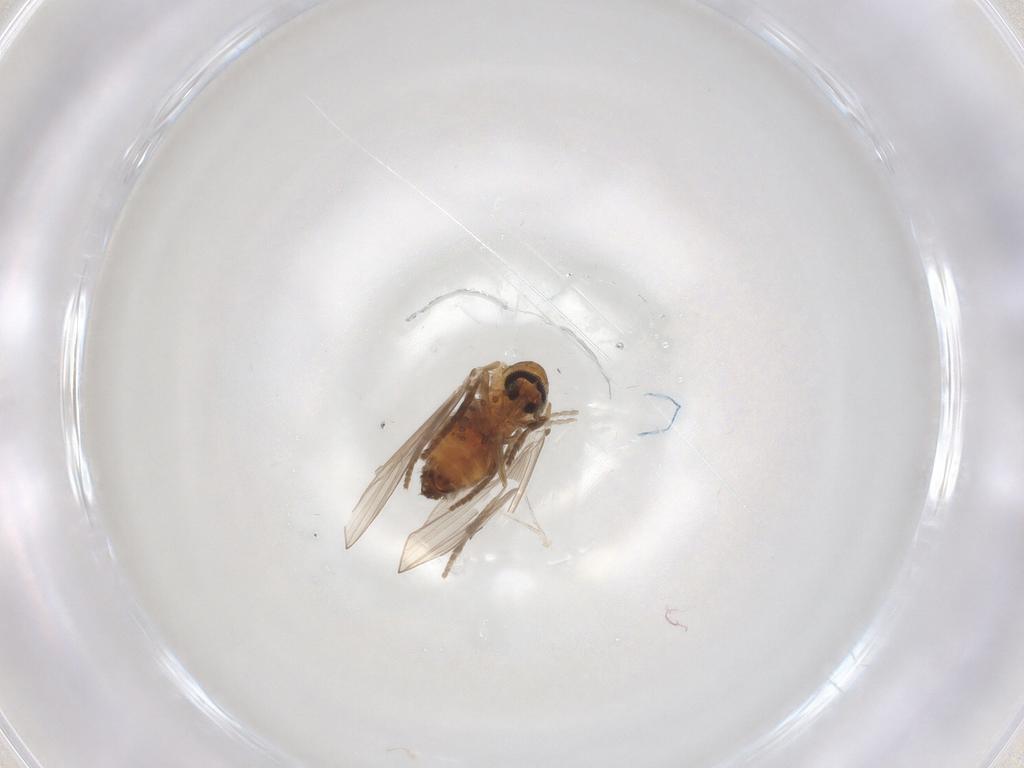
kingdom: Animalia
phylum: Arthropoda
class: Insecta
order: Diptera
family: Psychodidae
